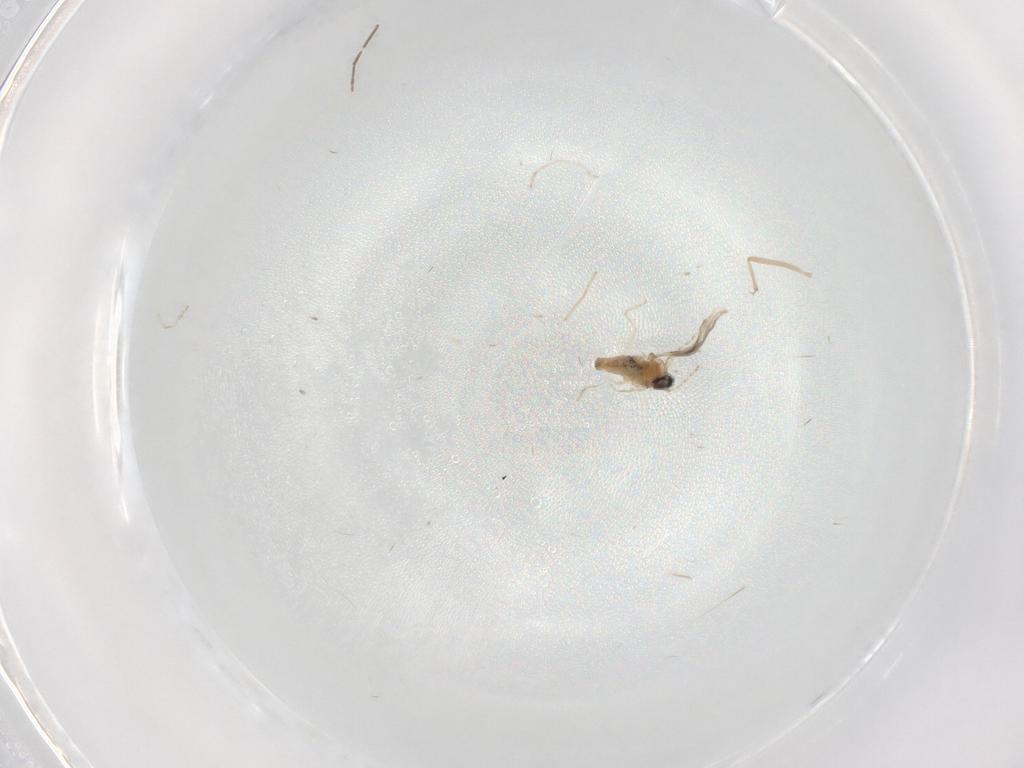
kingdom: Animalia
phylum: Arthropoda
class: Insecta
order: Diptera
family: Chironomidae
